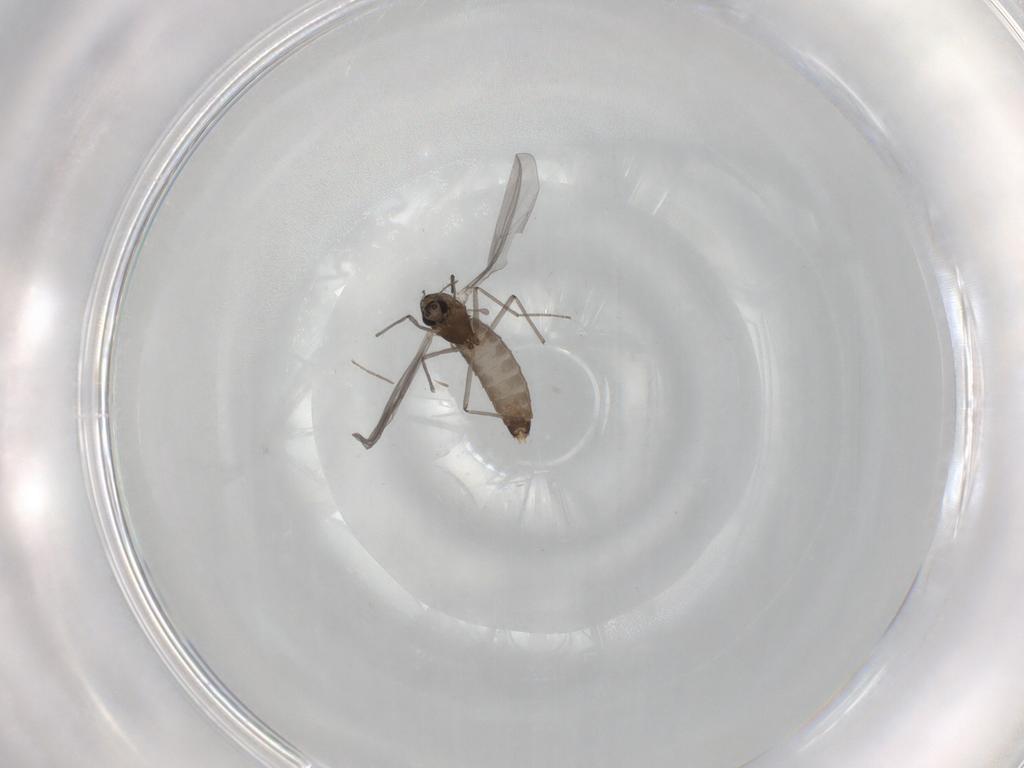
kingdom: Animalia
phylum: Arthropoda
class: Insecta
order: Diptera
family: Chironomidae
